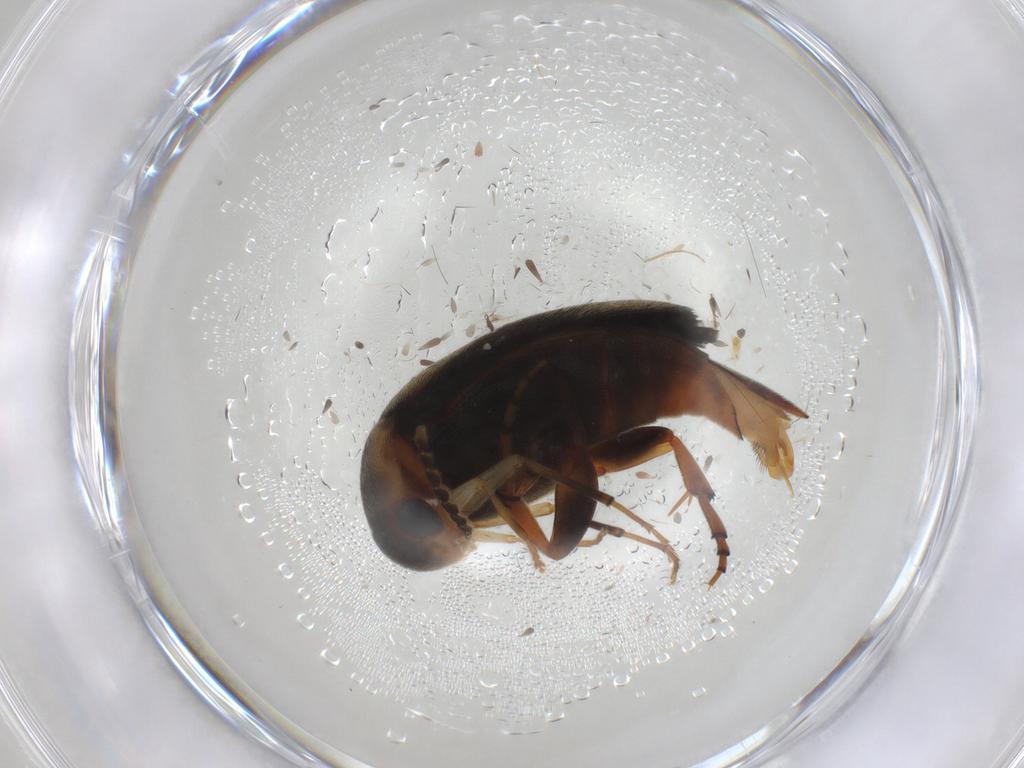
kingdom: Animalia
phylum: Arthropoda
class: Insecta
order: Coleoptera
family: Mordellidae
